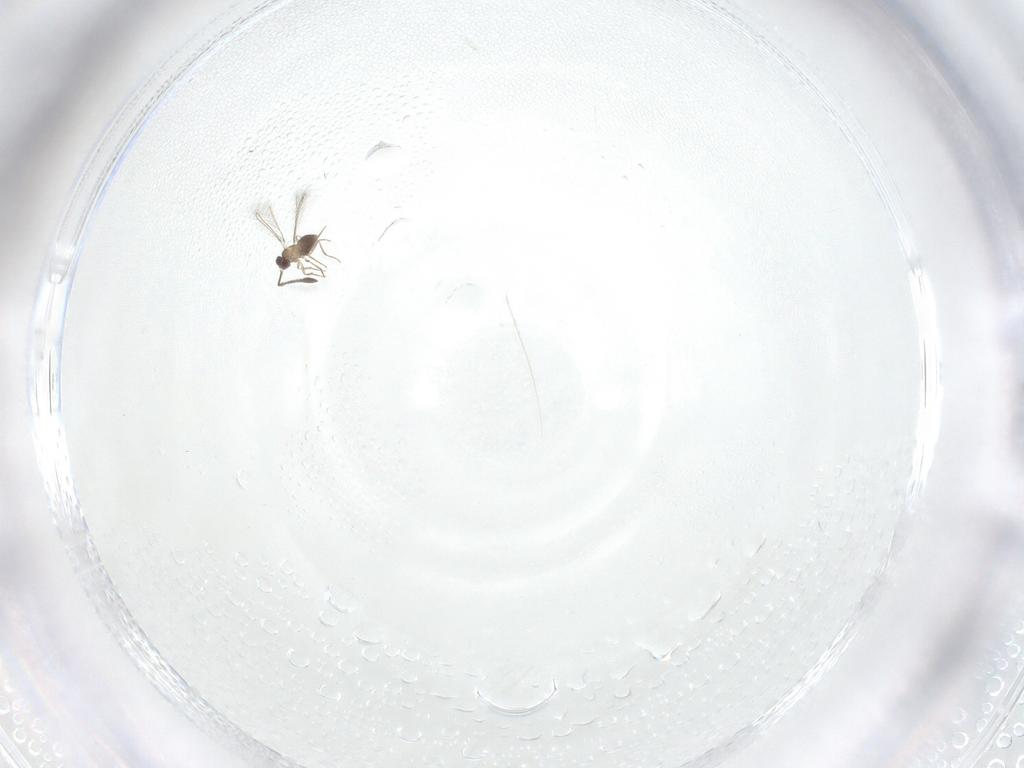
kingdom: Animalia
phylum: Arthropoda
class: Insecta
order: Hymenoptera
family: Mymaridae
